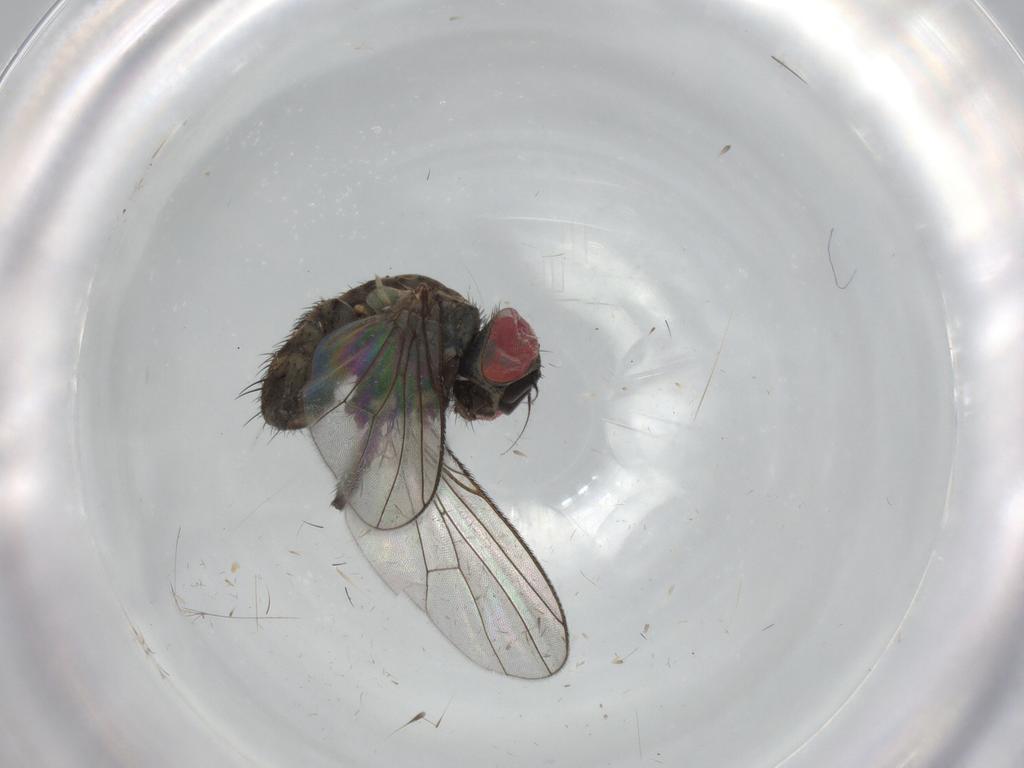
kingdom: Animalia
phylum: Arthropoda
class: Insecta
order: Diptera
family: Muscidae
